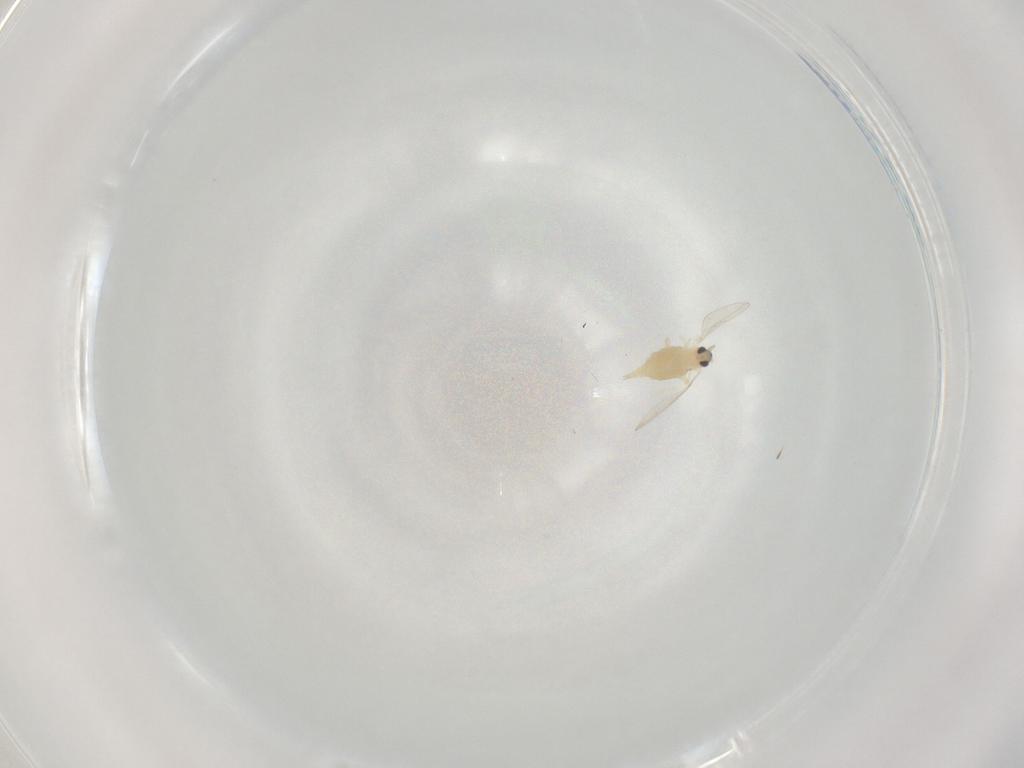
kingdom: Animalia
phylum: Arthropoda
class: Insecta
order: Diptera
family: Cecidomyiidae
